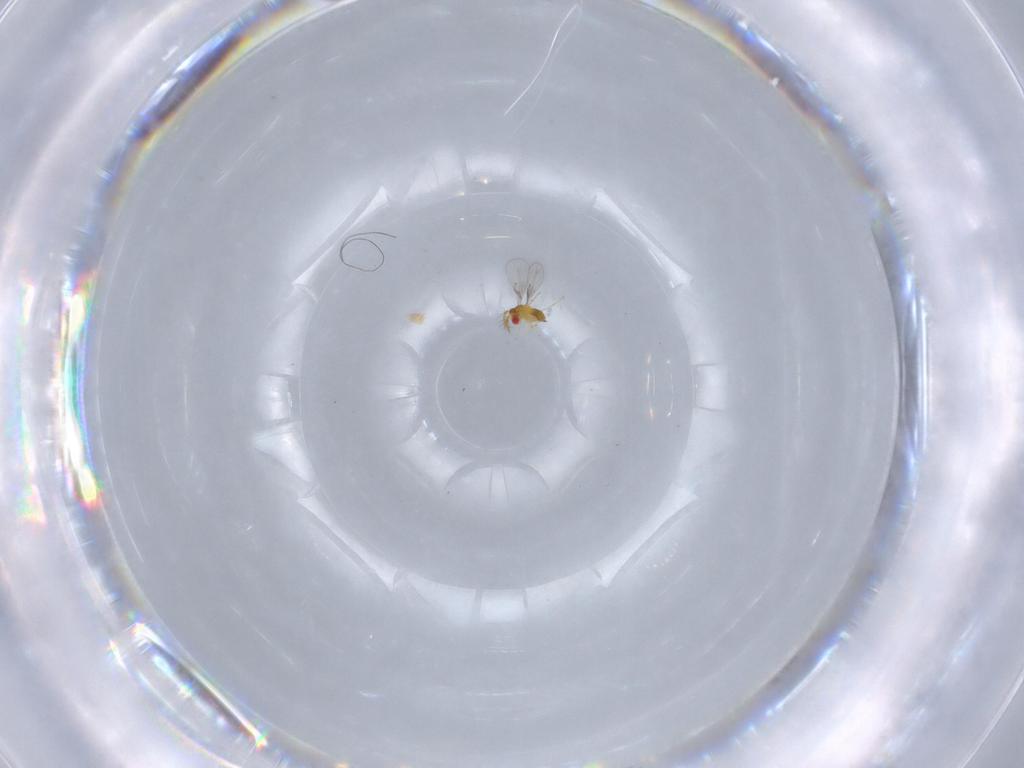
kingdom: Animalia
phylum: Arthropoda
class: Insecta
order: Hymenoptera
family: Trichogrammatidae
